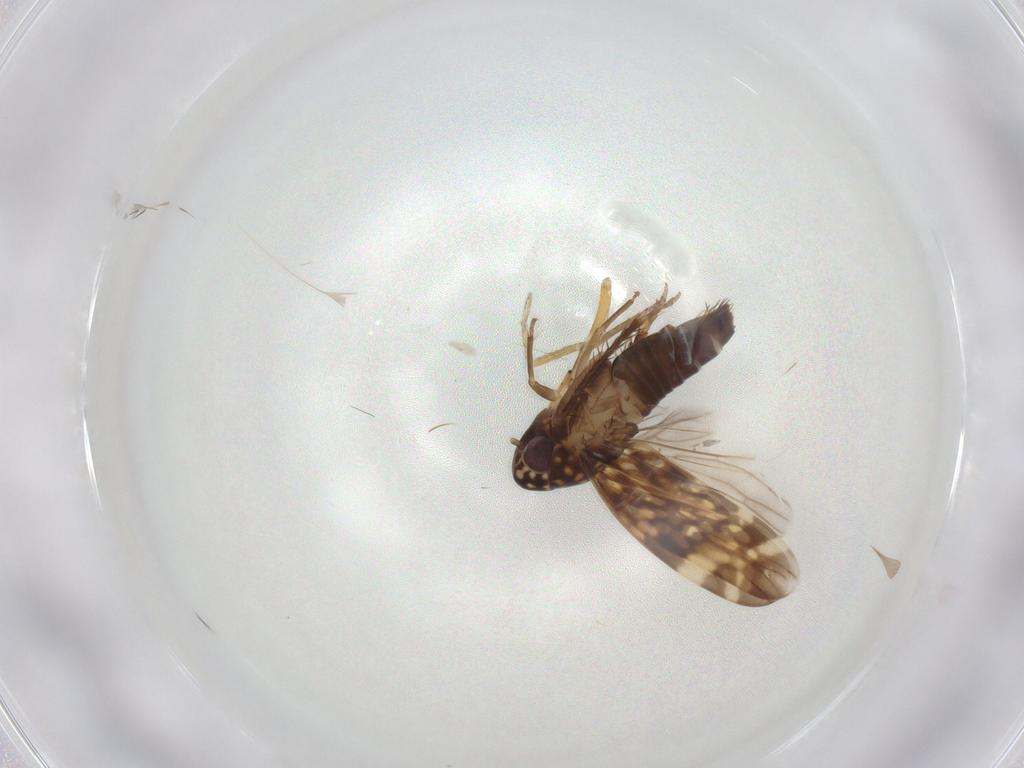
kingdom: Animalia
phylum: Arthropoda
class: Insecta
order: Hemiptera
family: Cicadellidae
